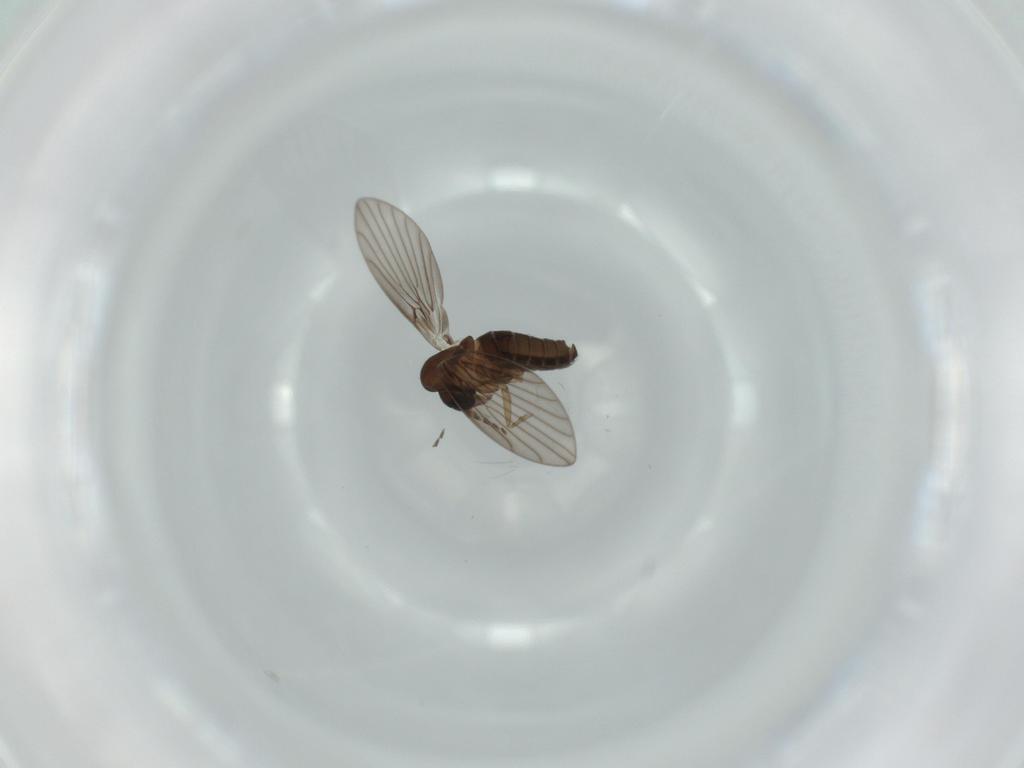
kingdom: Animalia
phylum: Arthropoda
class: Insecta
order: Diptera
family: Psychodidae
